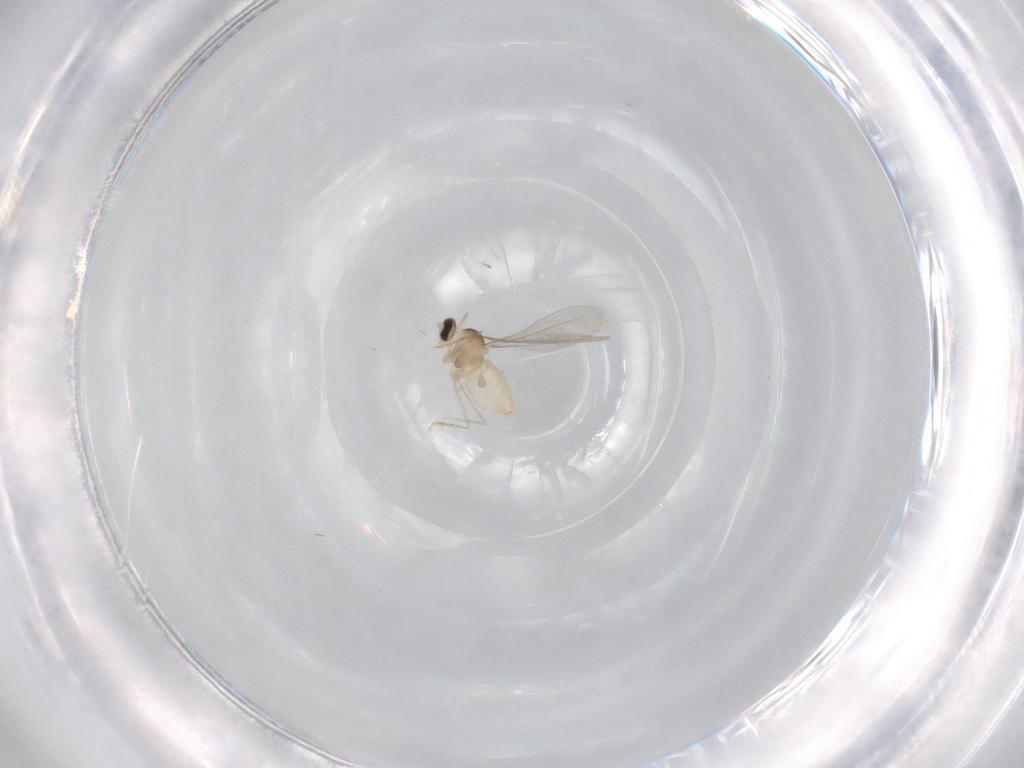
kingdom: Animalia
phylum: Arthropoda
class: Insecta
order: Diptera
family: Cecidomyiidae
